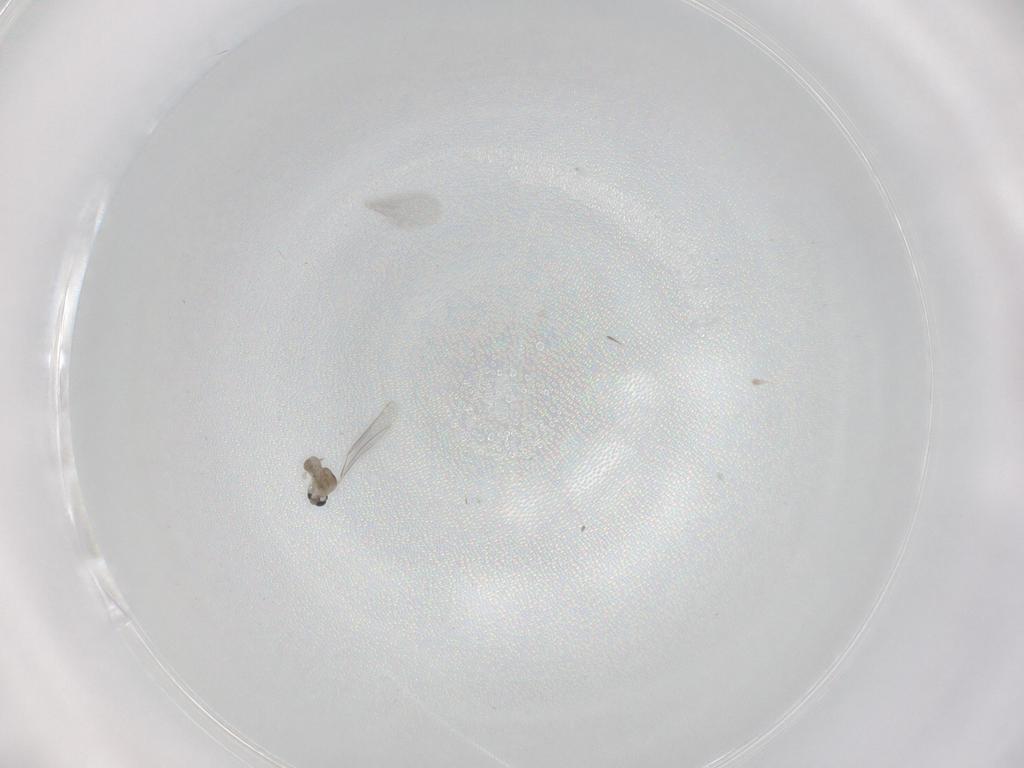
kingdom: Animalia
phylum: Arthropoda
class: Insecta
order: Diptera
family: Cecidomyiidae
